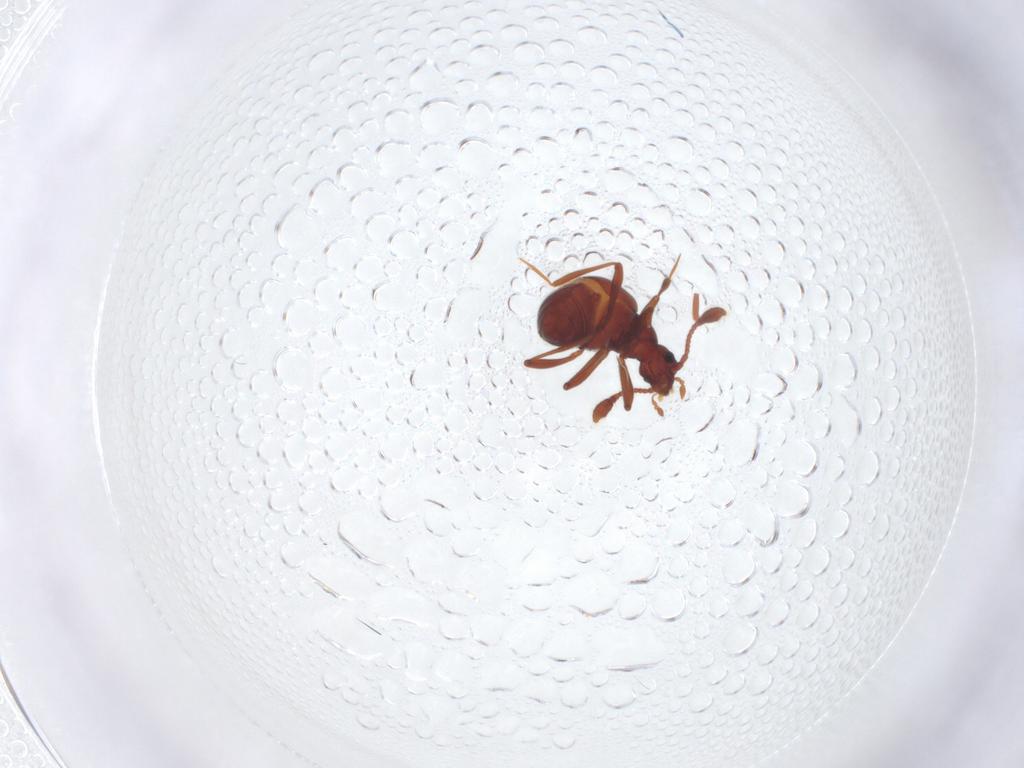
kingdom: Animalia
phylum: Arthropoda
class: Insecta
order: Coleoptera
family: Staphylinidae
